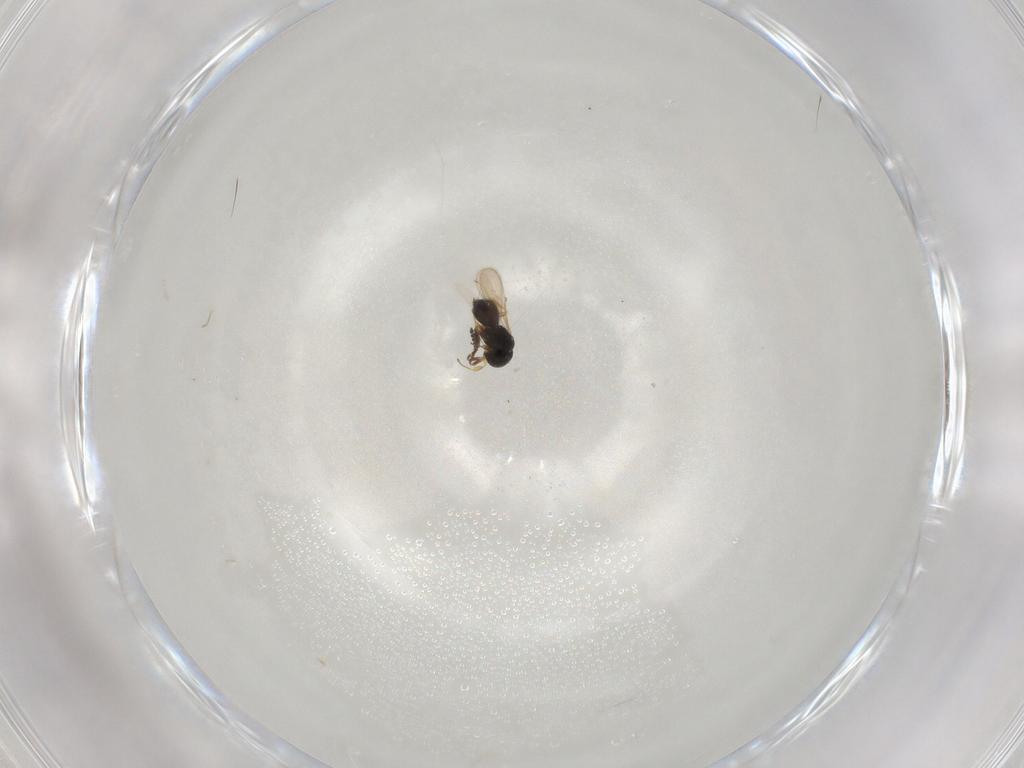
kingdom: Animalia
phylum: Arthropoda
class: Insecta
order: Hymenoptera
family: Scelionidae
